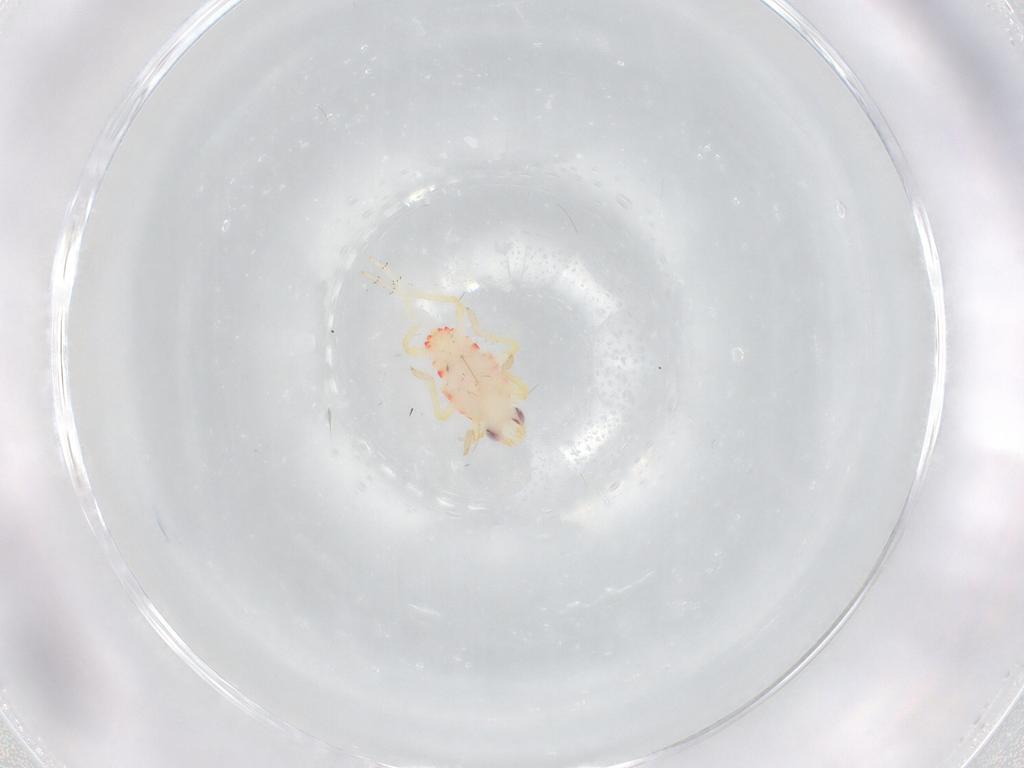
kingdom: Animalia
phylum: Arthropoda
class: Insecta
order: Hemiptera
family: Tropiduchidae
